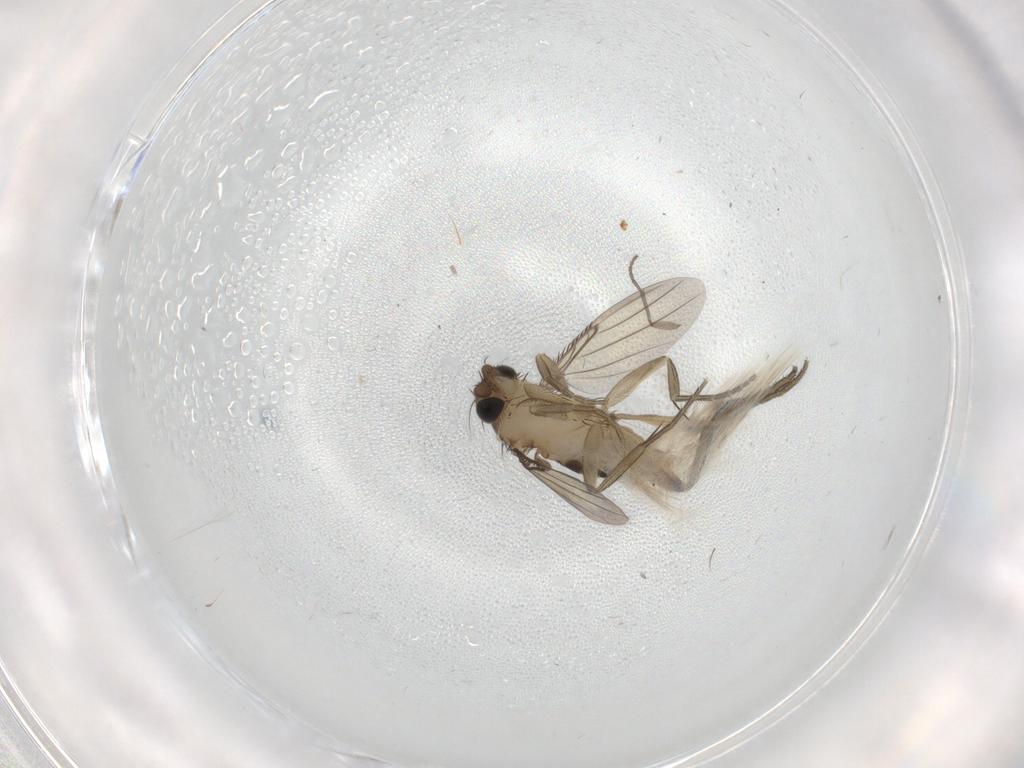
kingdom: Animalia
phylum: Arthropoda
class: Insecta
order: Diptera
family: Phoridae
